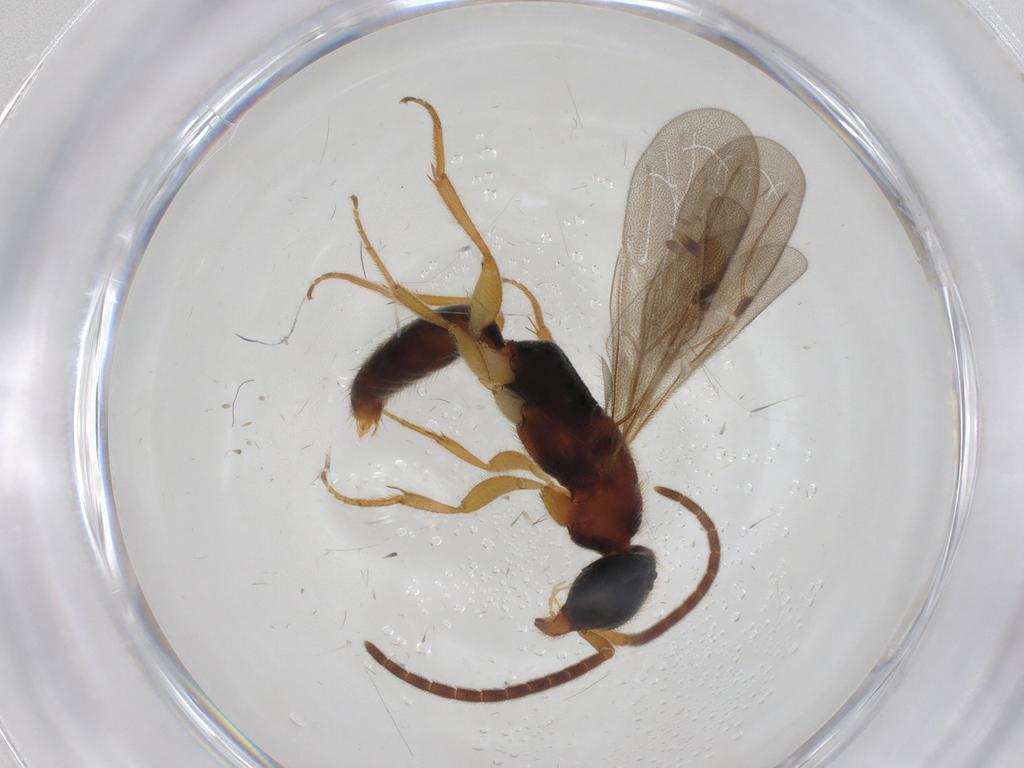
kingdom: Animalia
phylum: Arthropoda
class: Insecta
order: Hymenoptera
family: Bethylidae
